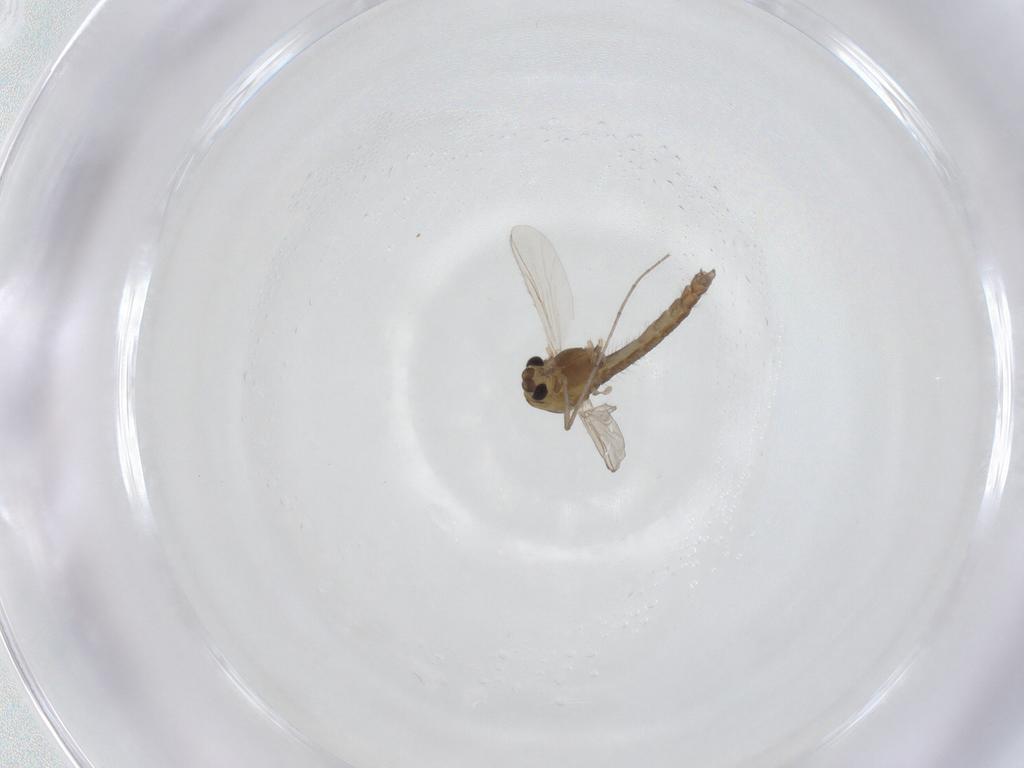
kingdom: Animalia
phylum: Arthropoda
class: Insecta
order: Diptera
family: Chironomidae
